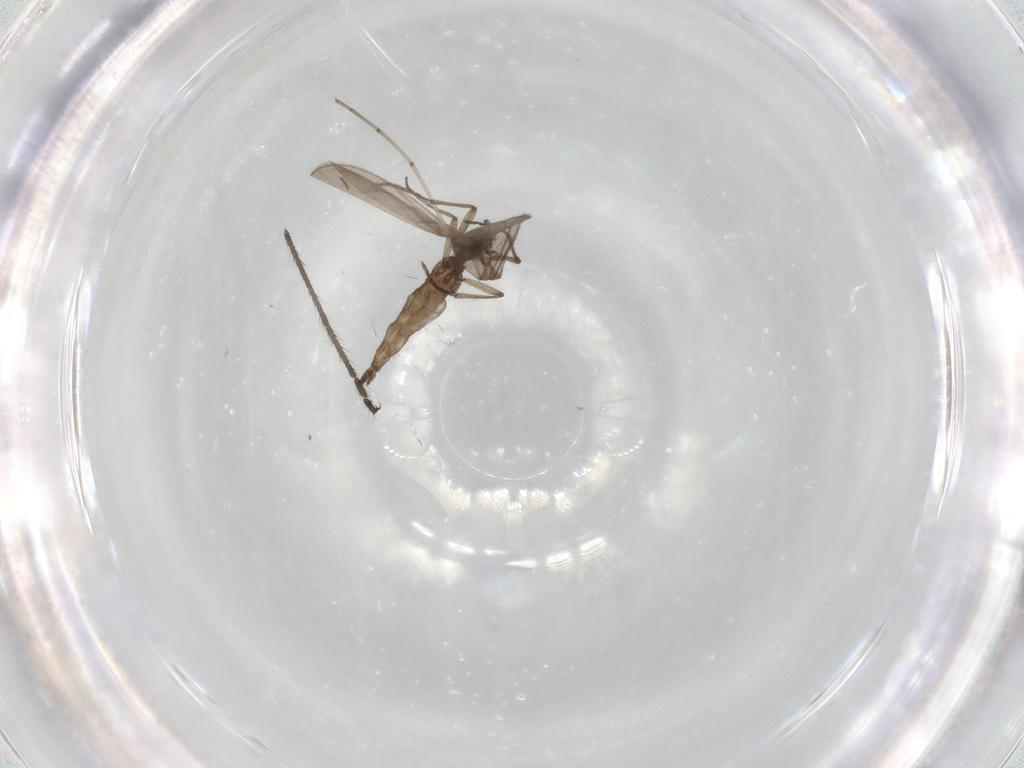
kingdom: Animalia
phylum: Arthropoda
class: Insecta
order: Diptera
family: Sciaridae
